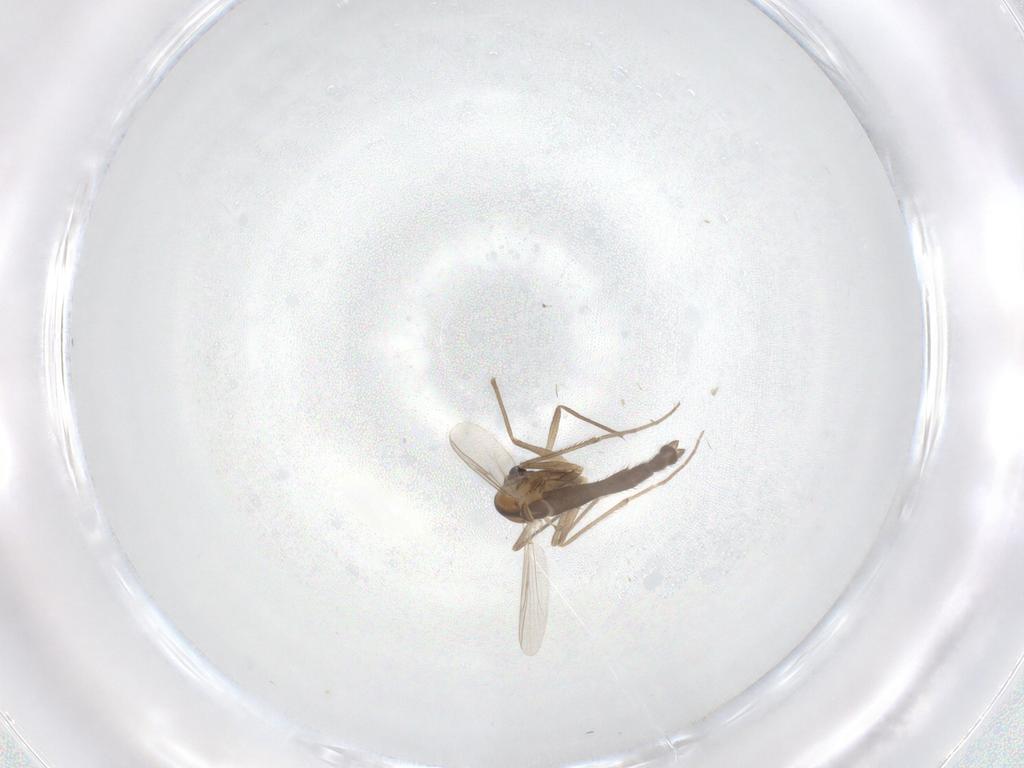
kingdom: Animalia
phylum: Arthropoda
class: Insecta
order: Diptera
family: Chironomidae
